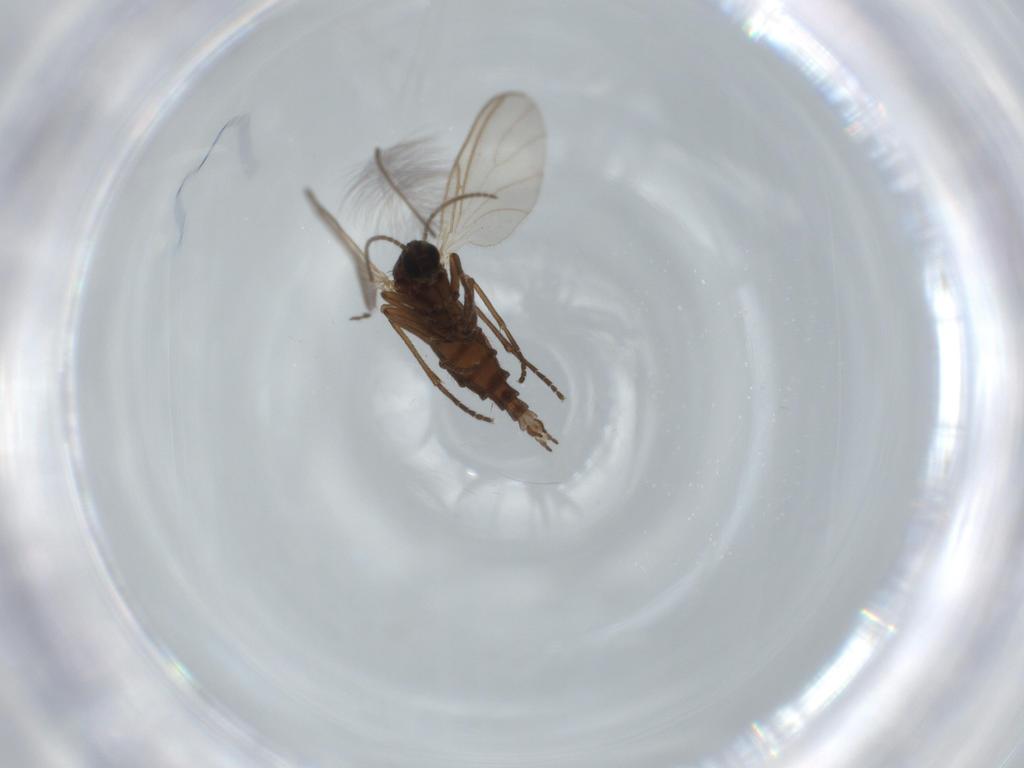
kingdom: Animalia
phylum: Arthropoda
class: Insecta
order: Diptera
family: Sciaridae
